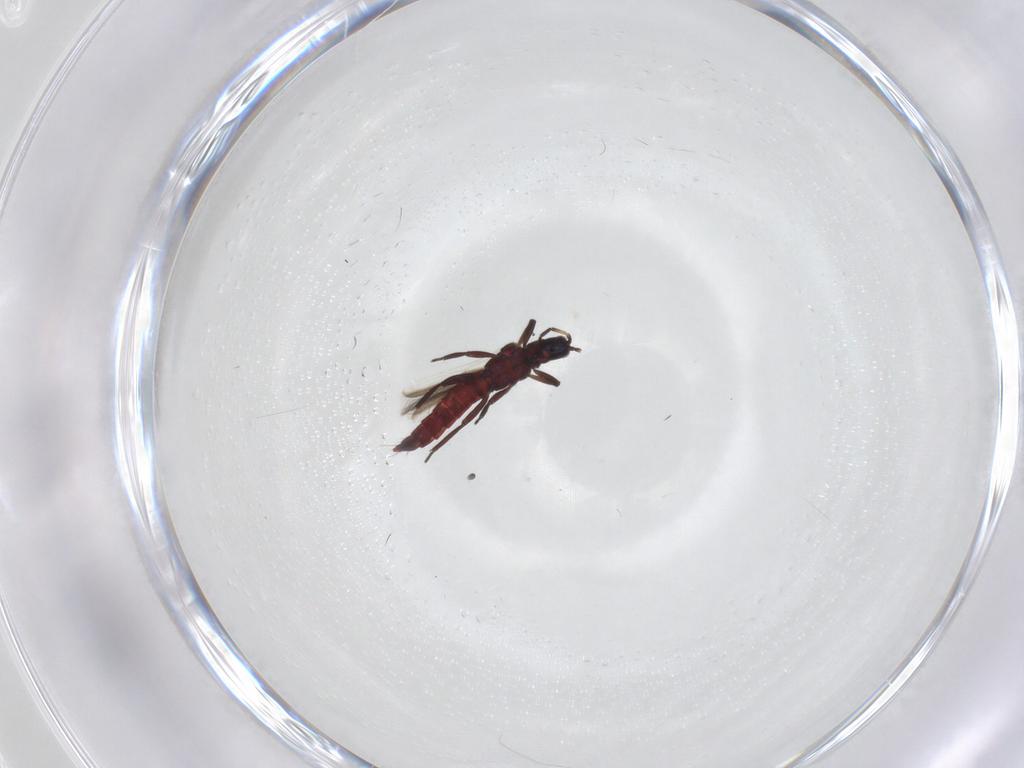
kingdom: Animalia
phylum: Arthropoda
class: Insecta
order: Thysanoptera
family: Aeolothripidae
